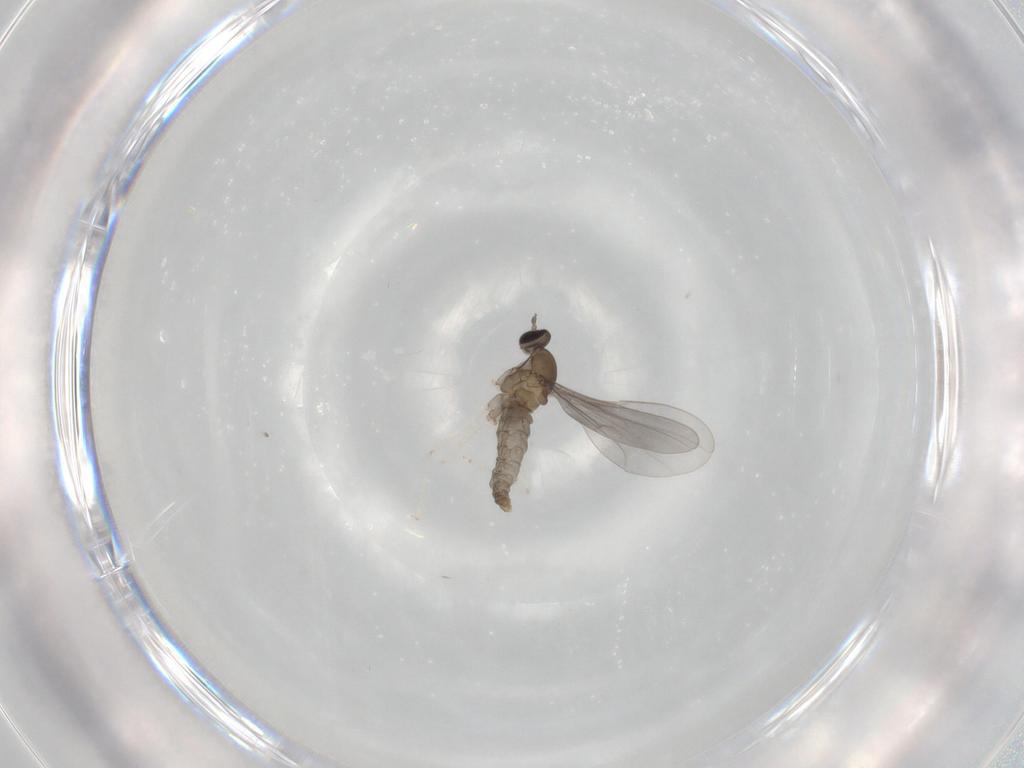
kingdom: Animalia
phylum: Arthropoda
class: Insecta
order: Diptera
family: Cecidomyiidae
